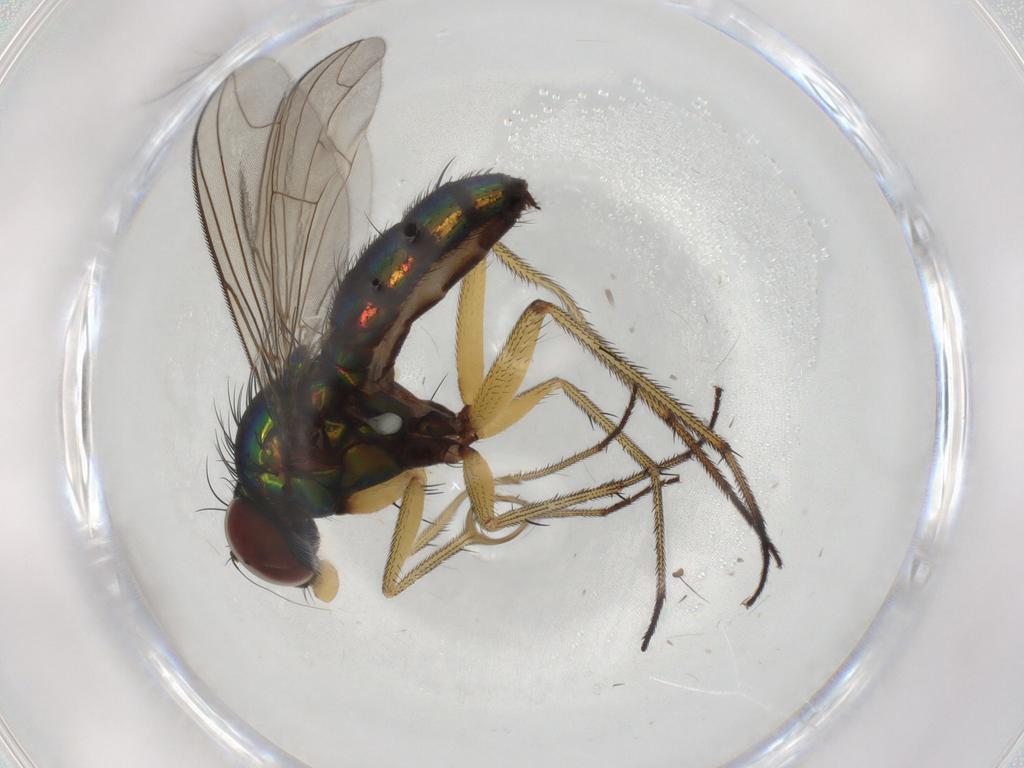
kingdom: Animalia
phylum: Arthropoda
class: Insecta
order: Diptera
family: Dolichopodidae
